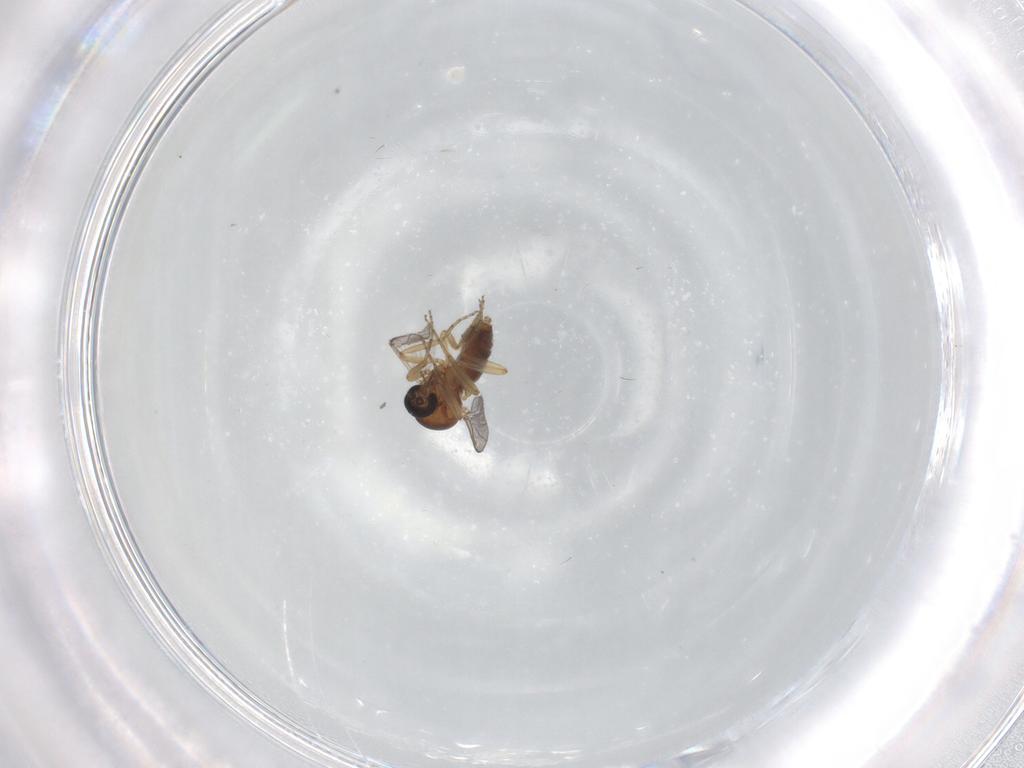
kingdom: Animalia
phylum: Arthropoda
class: Insecta
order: Diptera
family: Ceratopogonidae
